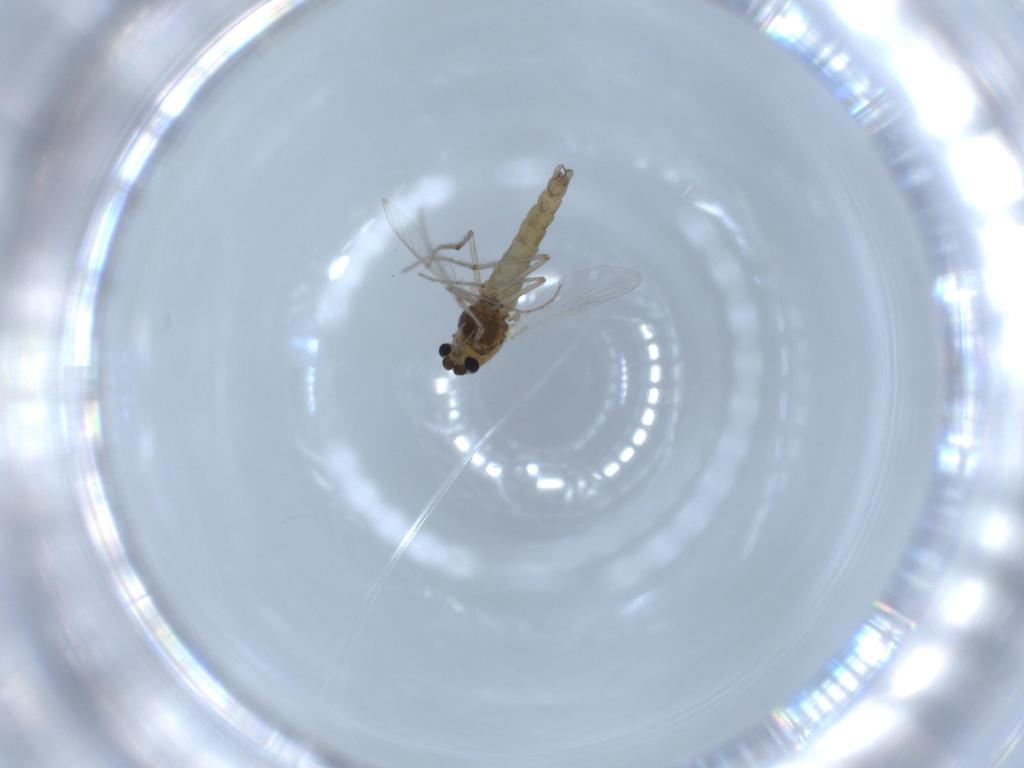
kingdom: Animalia
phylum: Arthropoda
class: Insecta
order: Diptera
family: Chironomidae
